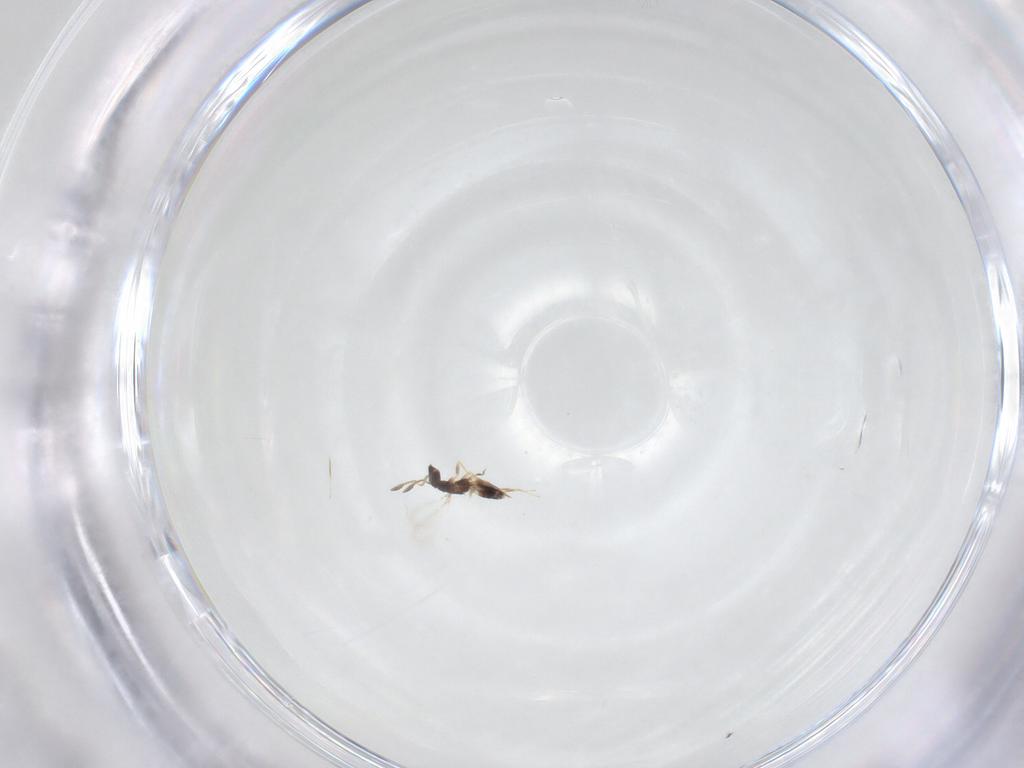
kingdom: Animalia
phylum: Arthropoda
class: Insecta
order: Hymenoptera
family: Mymaridae
